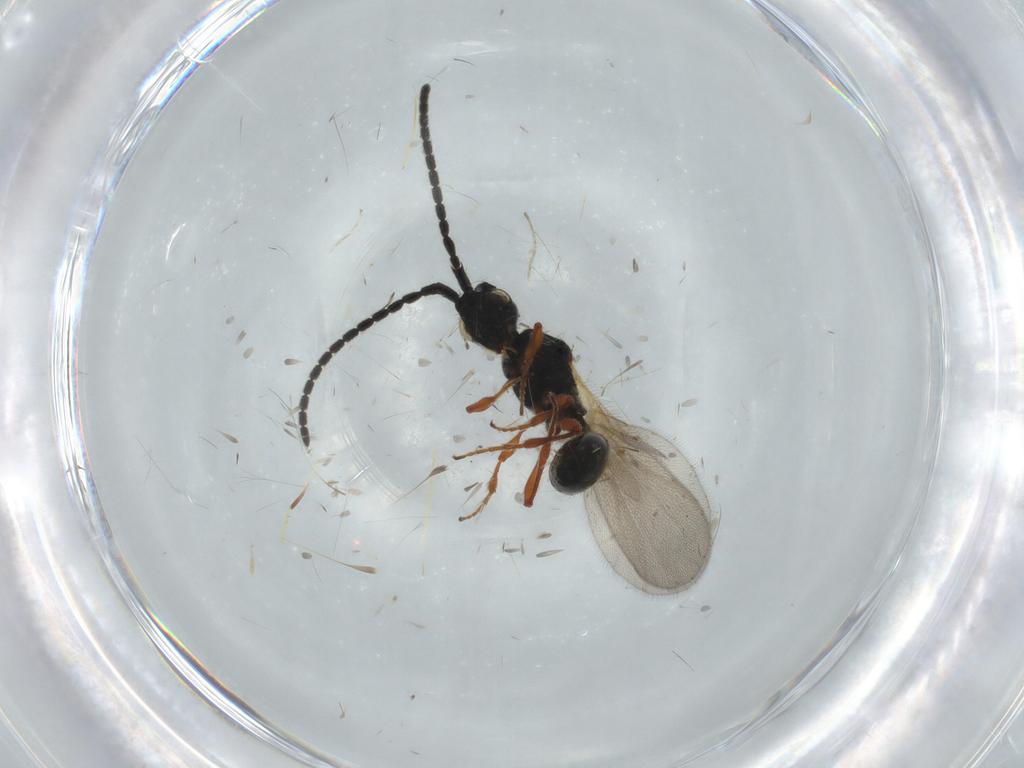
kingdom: Animalia
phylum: Arthropoda
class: Insecta
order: Hymenoptera
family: Diapriidae
